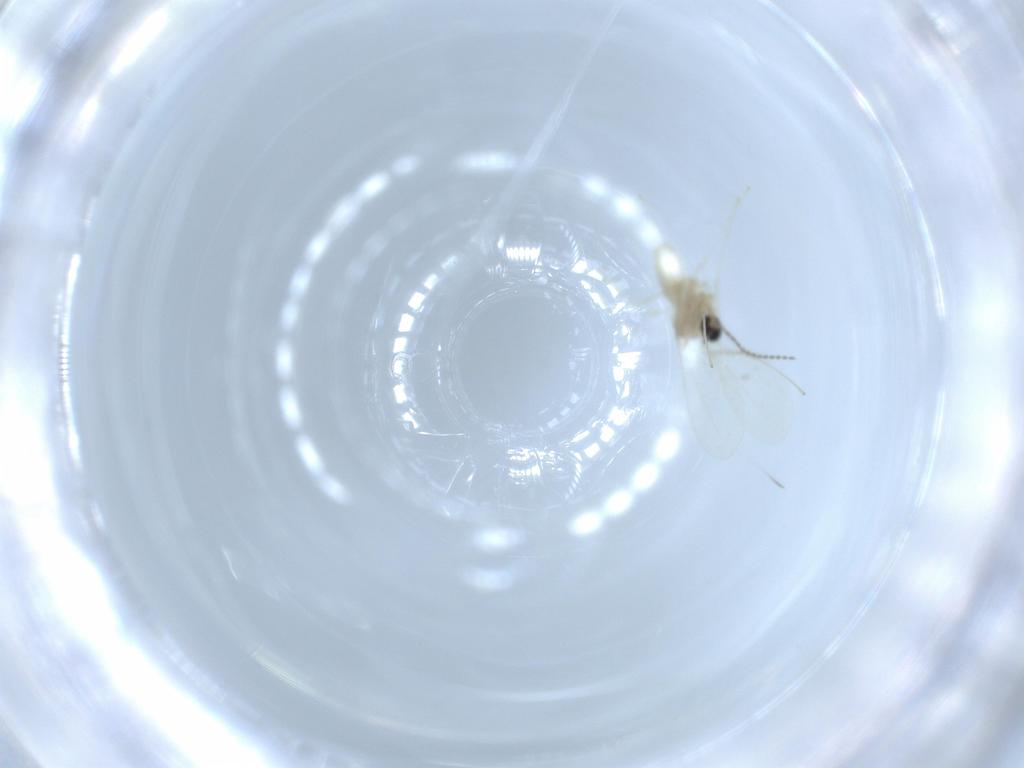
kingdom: Animalia
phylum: Arthropoda
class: Insecta
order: Diptera
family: Cecidomyiidae
